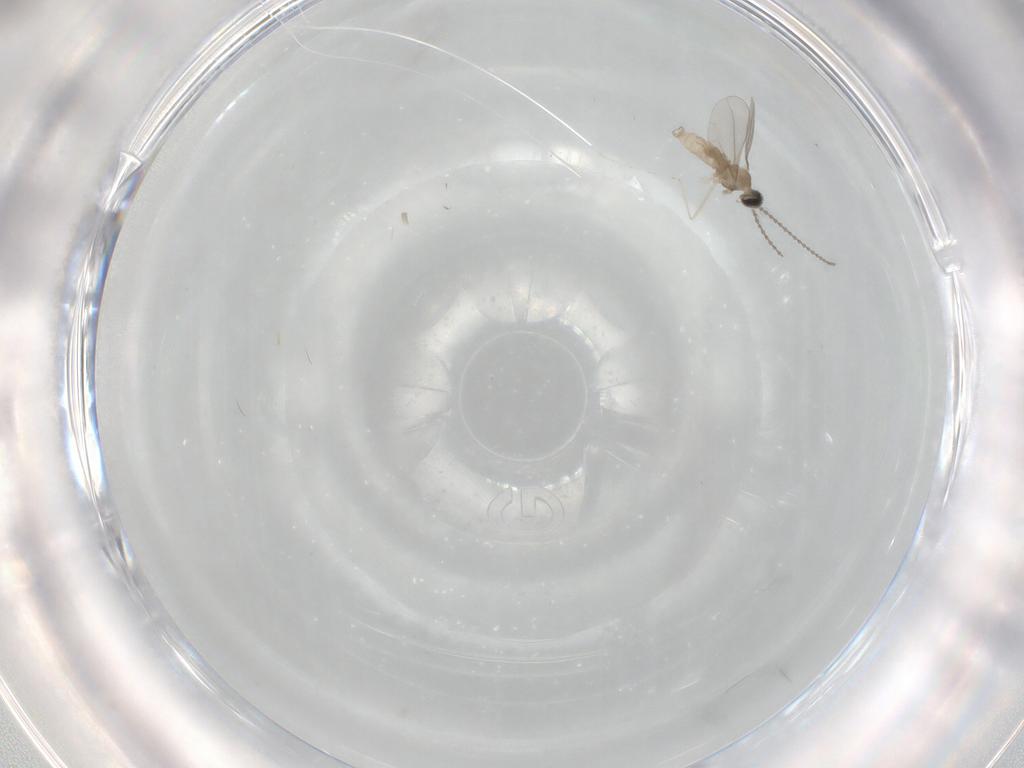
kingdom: Animalia
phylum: Arthropoda
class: Insecta
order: Diptera
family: Cecidomyiidae
